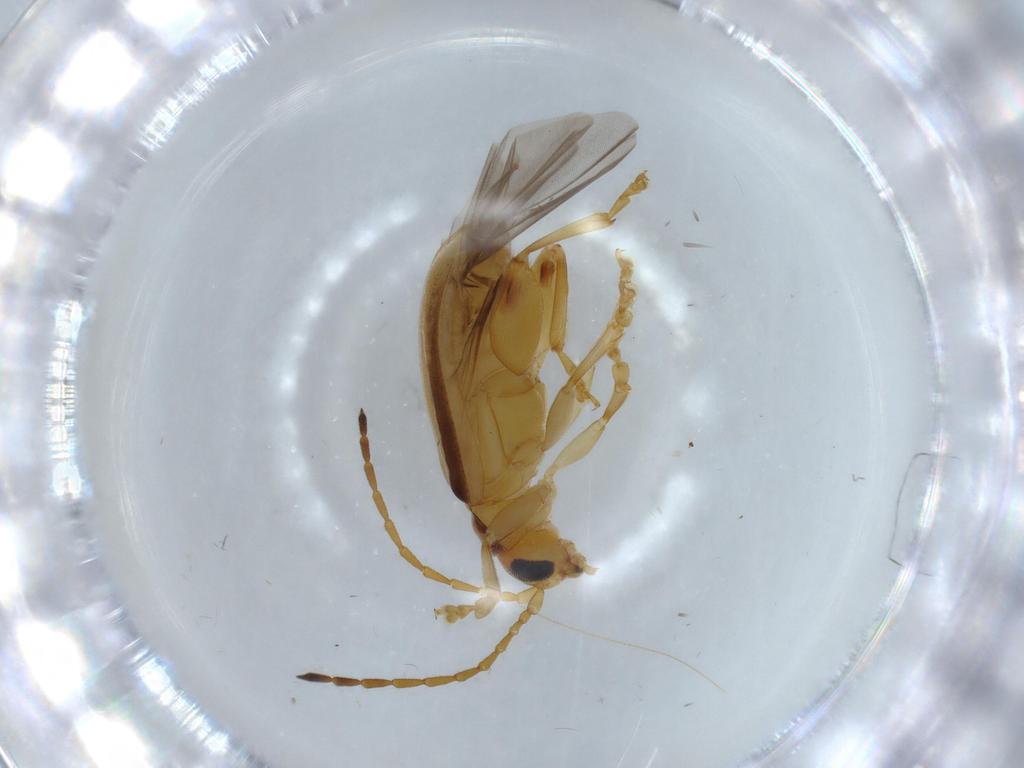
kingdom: Animalia
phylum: Arthropoda
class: Insecta
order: Coleoptera
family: Chrysomelidae
